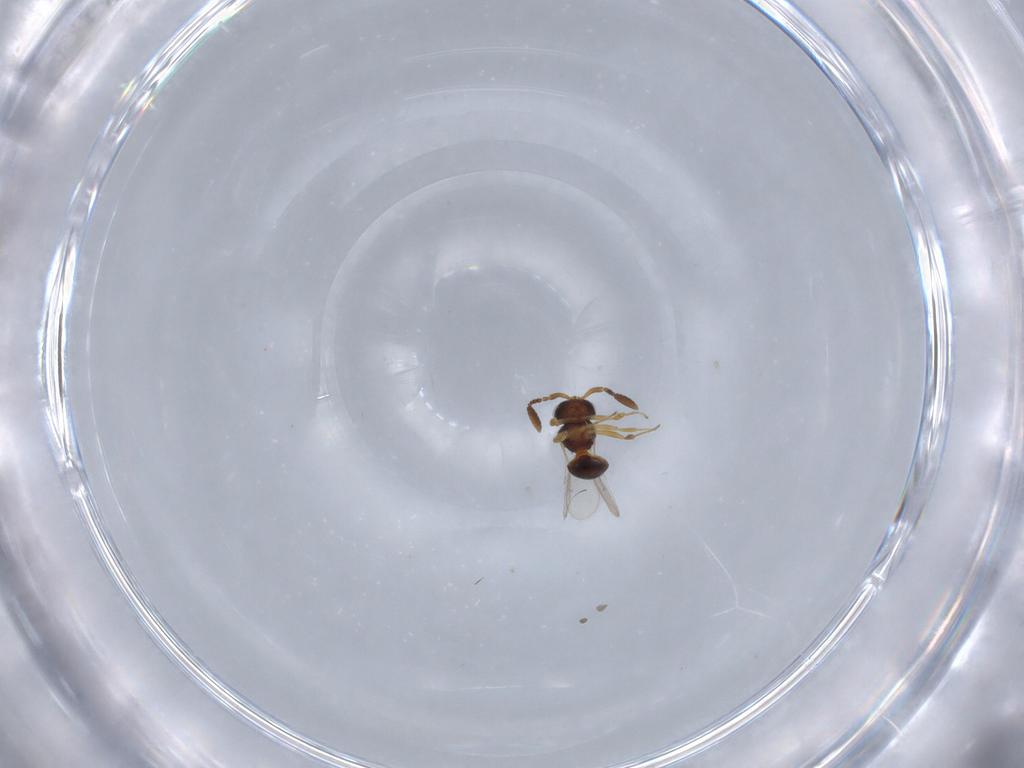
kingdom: Animalia
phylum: Arthropoda
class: Insecta
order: Hymenoptera
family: Scelionidae
